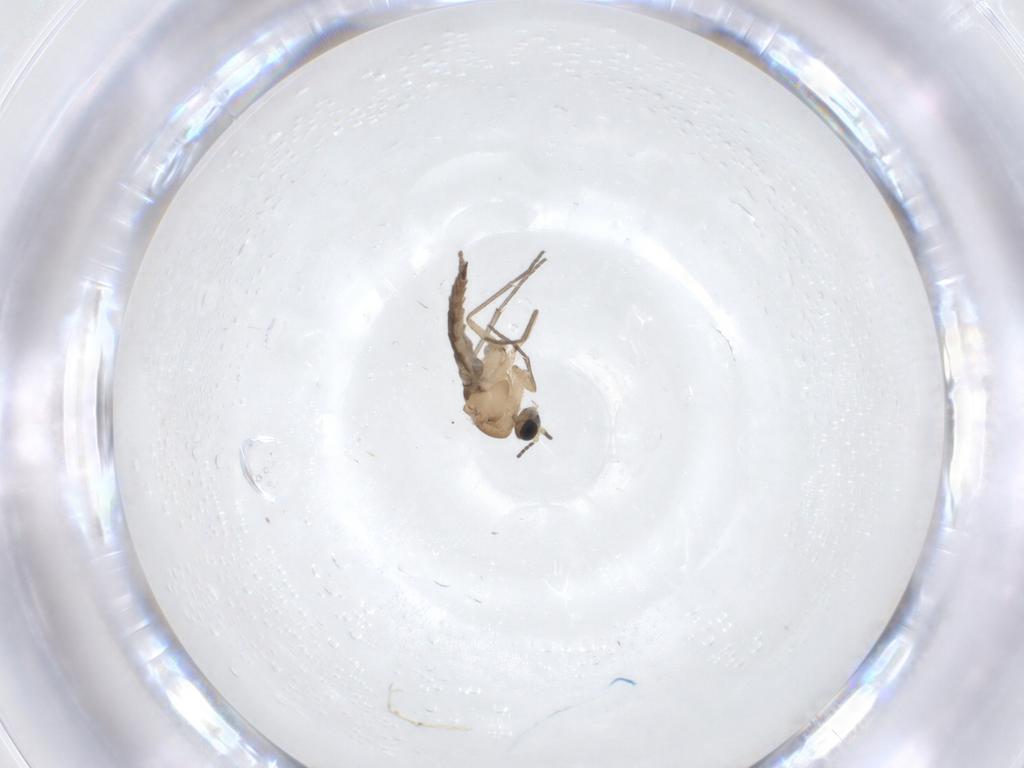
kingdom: Animalia
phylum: Arthropoda
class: Insecta
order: Diptera
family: Sciaridae
